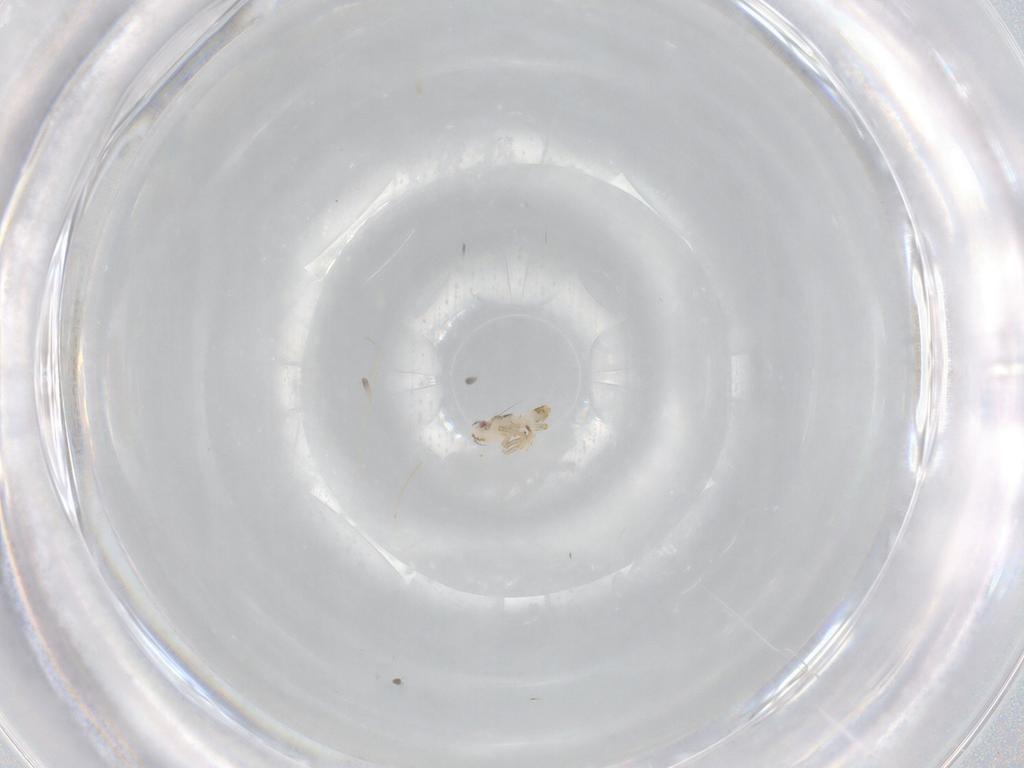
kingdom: Animalia
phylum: Arthropoda
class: Insecta
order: Hemiptera
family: Delphacidae
